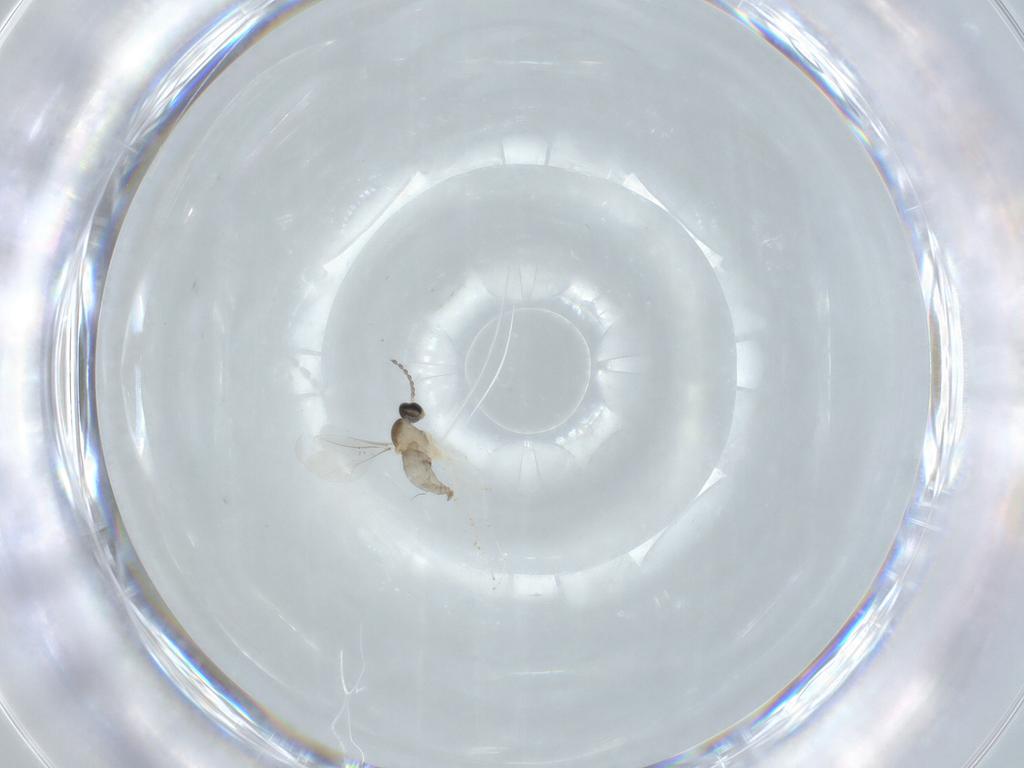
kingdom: Animalia
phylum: Arthropoda
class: Insecta
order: Diptera
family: Cecidomyiidae
